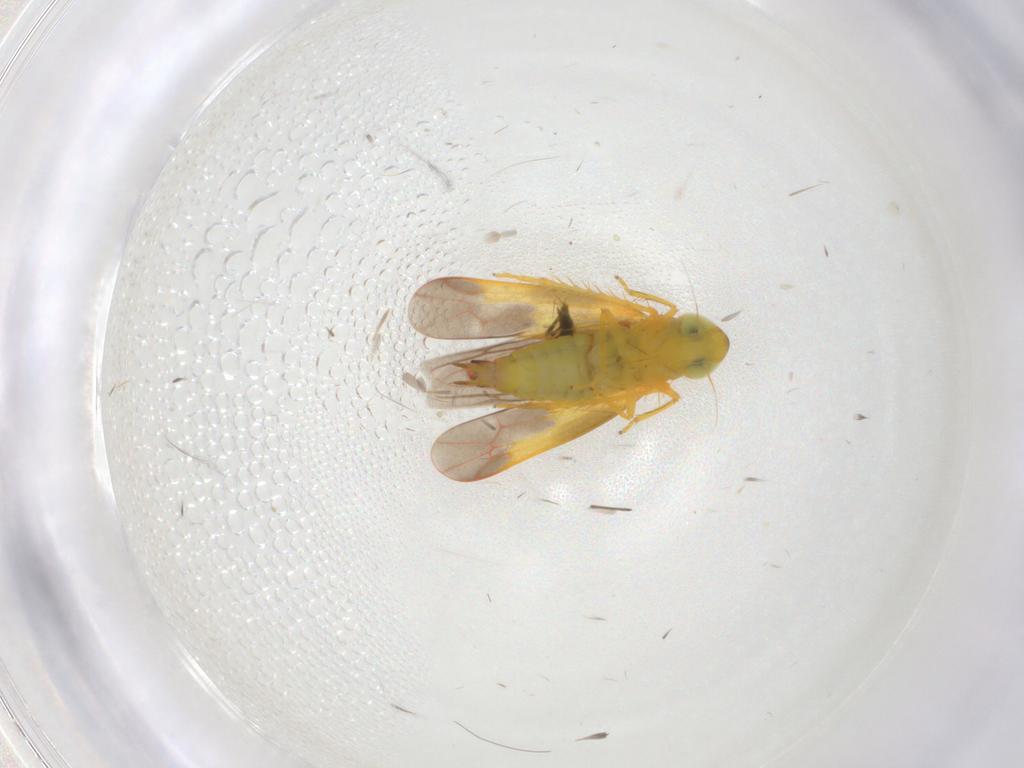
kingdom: Animalia
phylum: Arthropoda
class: Insecta
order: Hemiptera
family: Cicadellidae
